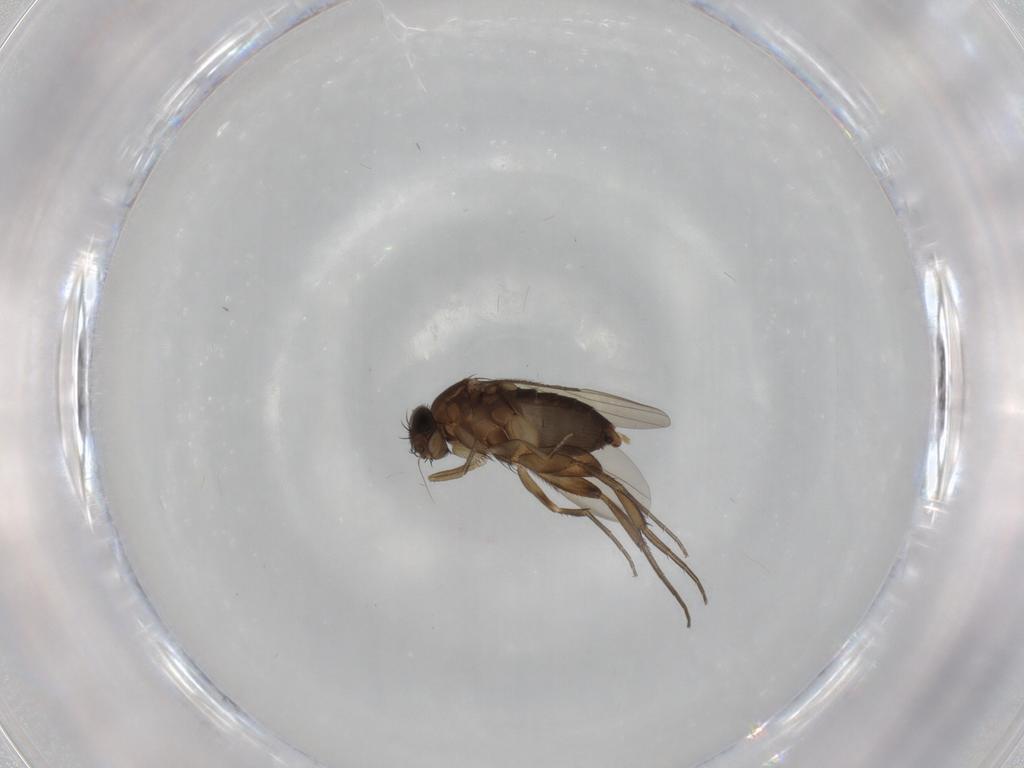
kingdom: Animalia
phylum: Arthropoda
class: Insecta
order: Diptera
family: Phoridae
